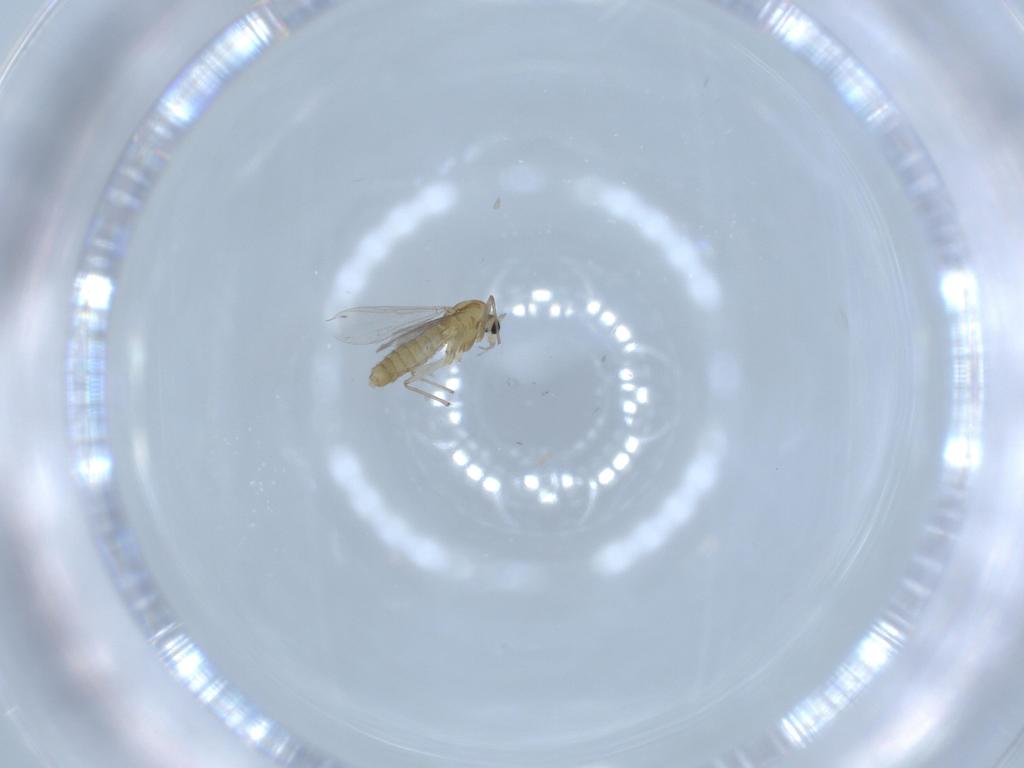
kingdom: Animalia
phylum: Arthropoda
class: Insecta
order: Diptera
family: Chironomidae
